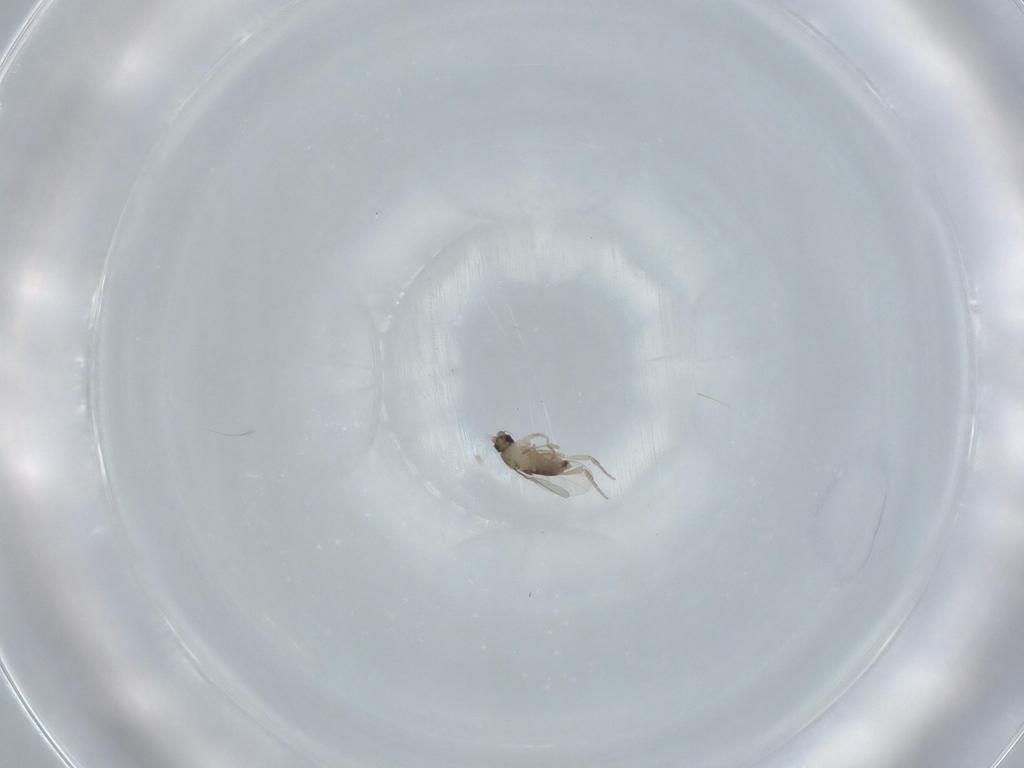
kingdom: Animalia
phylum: Arthropoda
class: Insecta
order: Diptera
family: Phoridae
